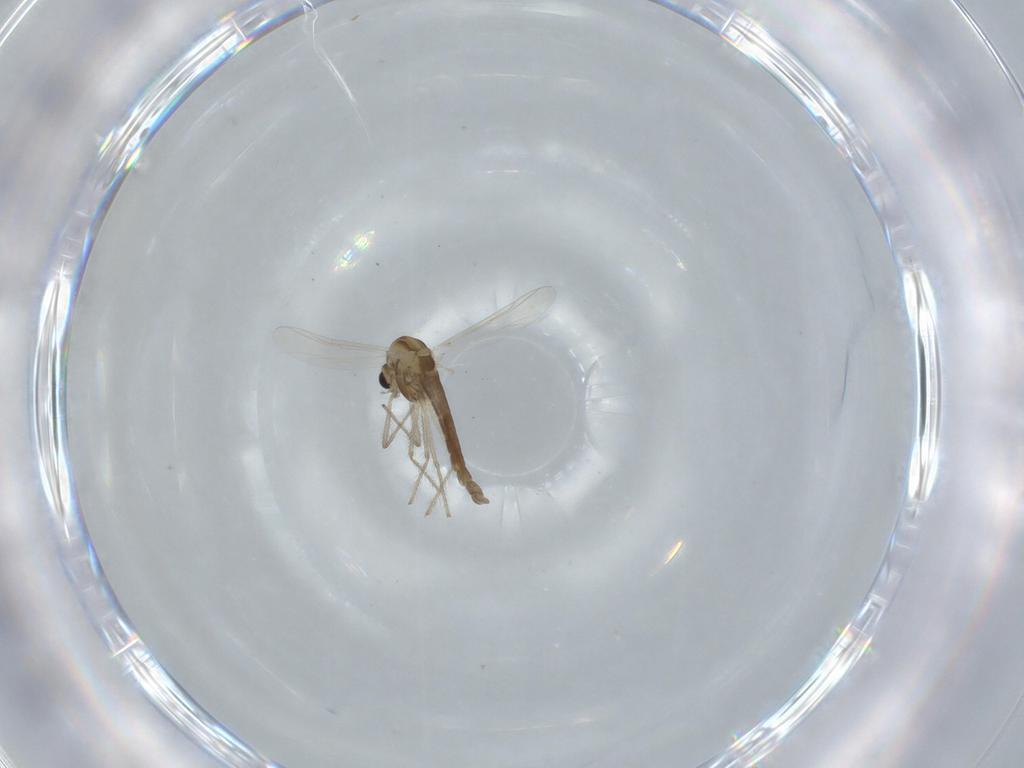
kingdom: Animalia
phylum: Arthropoda
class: Insecta
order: Diptera
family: Chironomidae
